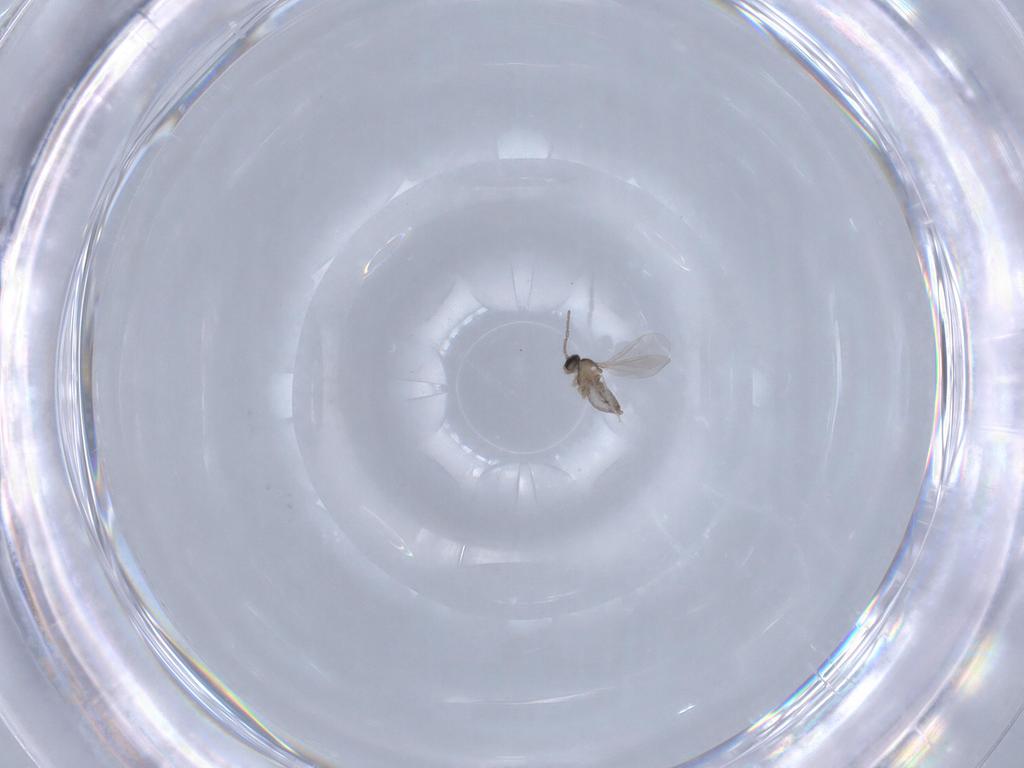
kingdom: Animalia
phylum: Arthropoda
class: Insecta
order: Diptera
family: Cecidomyiidae
